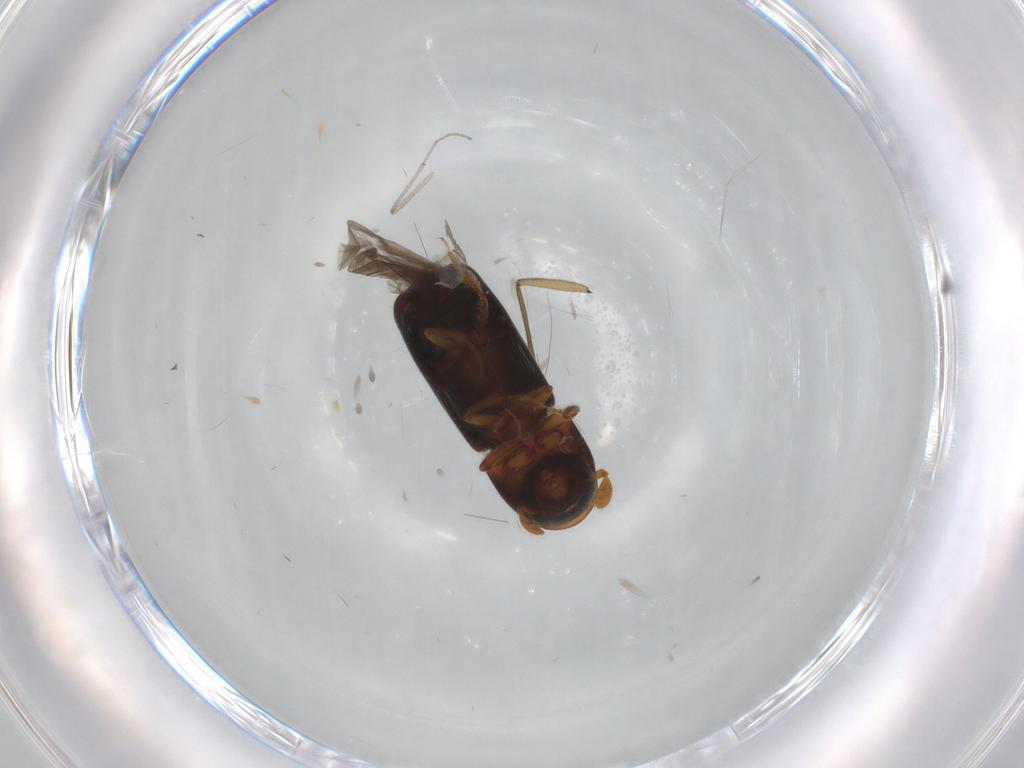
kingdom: Animalia
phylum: Arthropoda
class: Insecta
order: Coleoptera
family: Curculionidae
